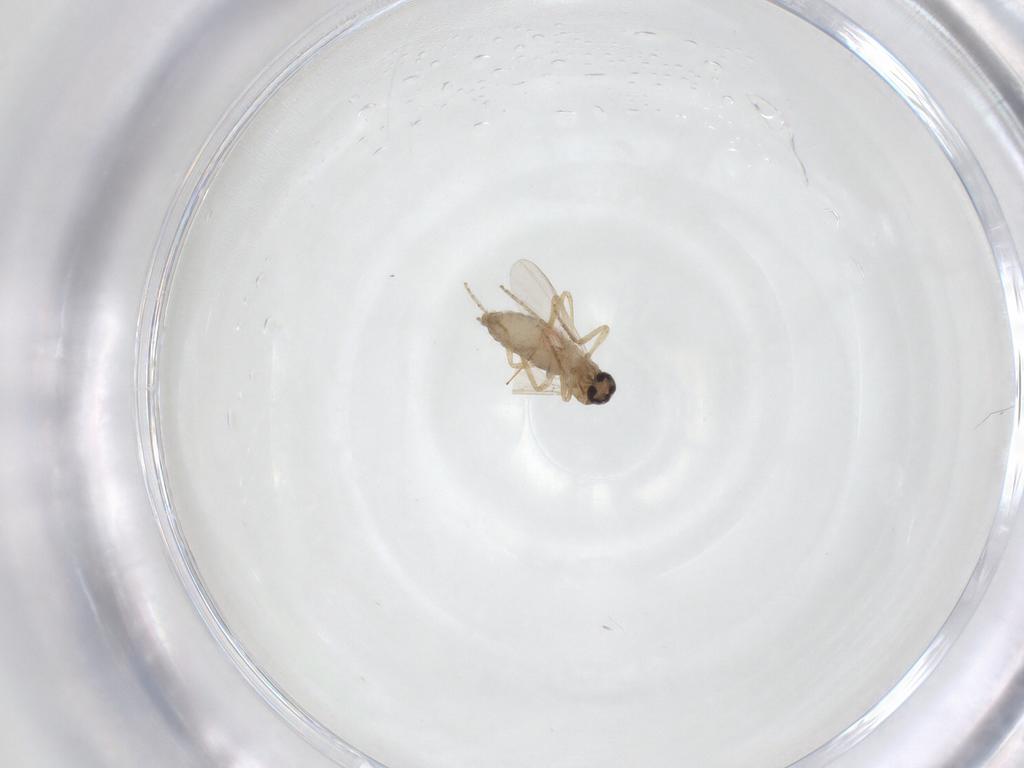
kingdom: Animalia
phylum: Arthropoda
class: Insecta
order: Diptera
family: Ceratopogonidae
